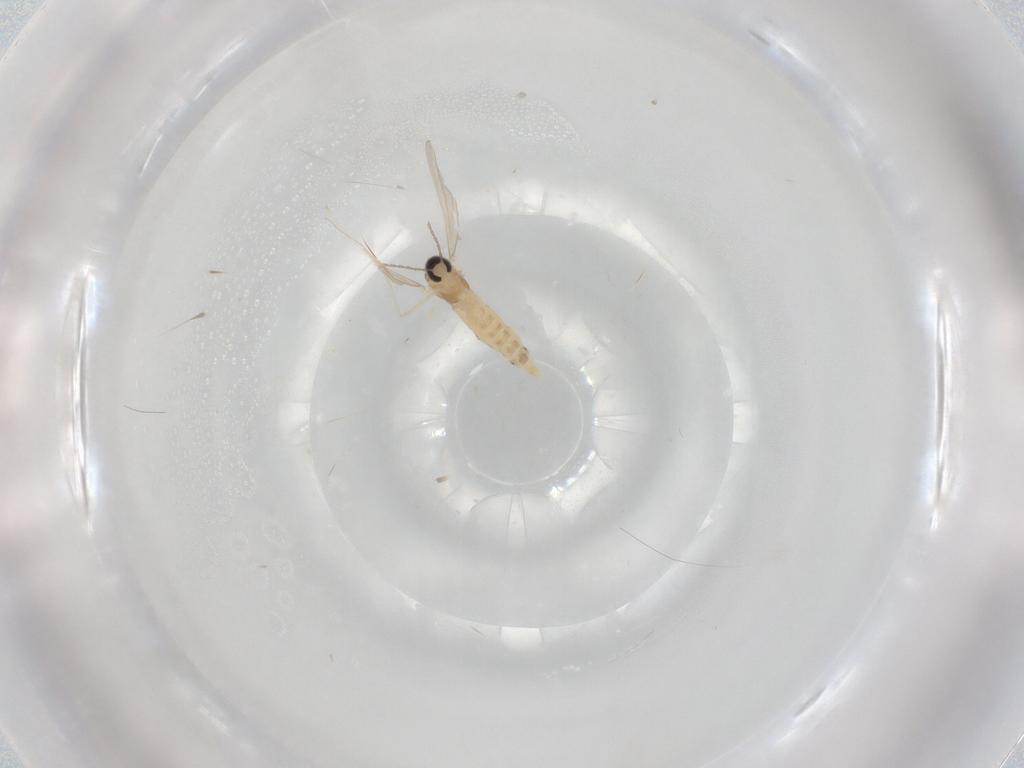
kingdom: Animalia
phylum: Arthropoda
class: Insecta
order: Diptera
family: Cecidomyiidae
